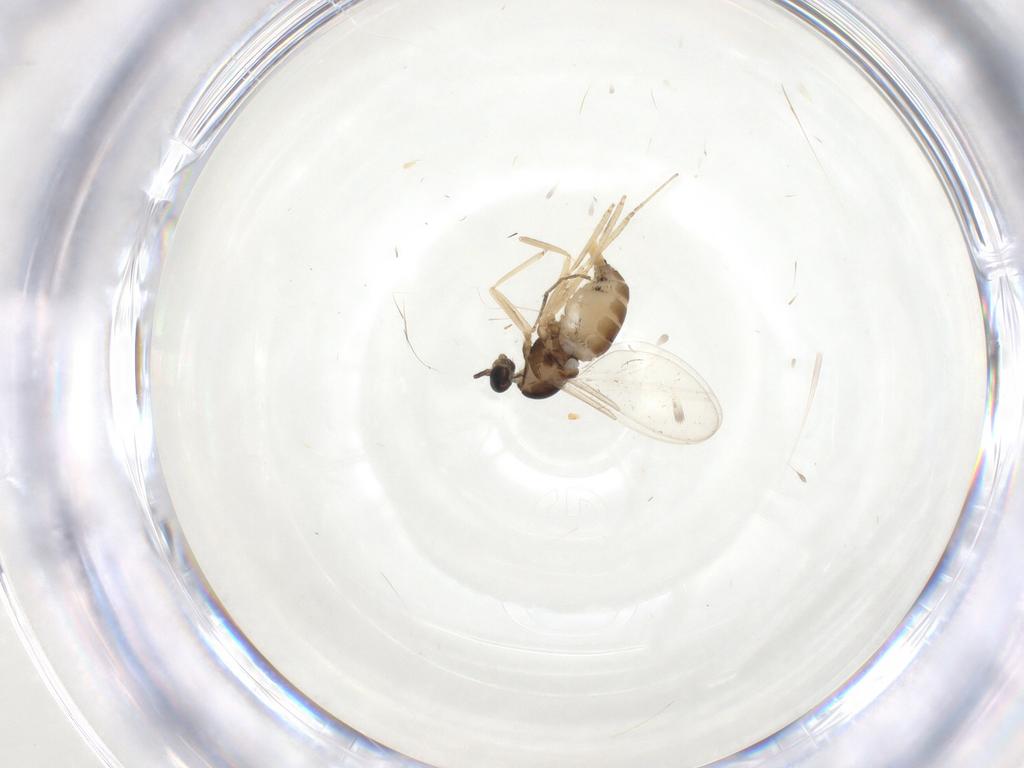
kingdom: Animalia
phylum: Arthropoda
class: Insecta
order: Diptera
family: Cecidomyiidae
